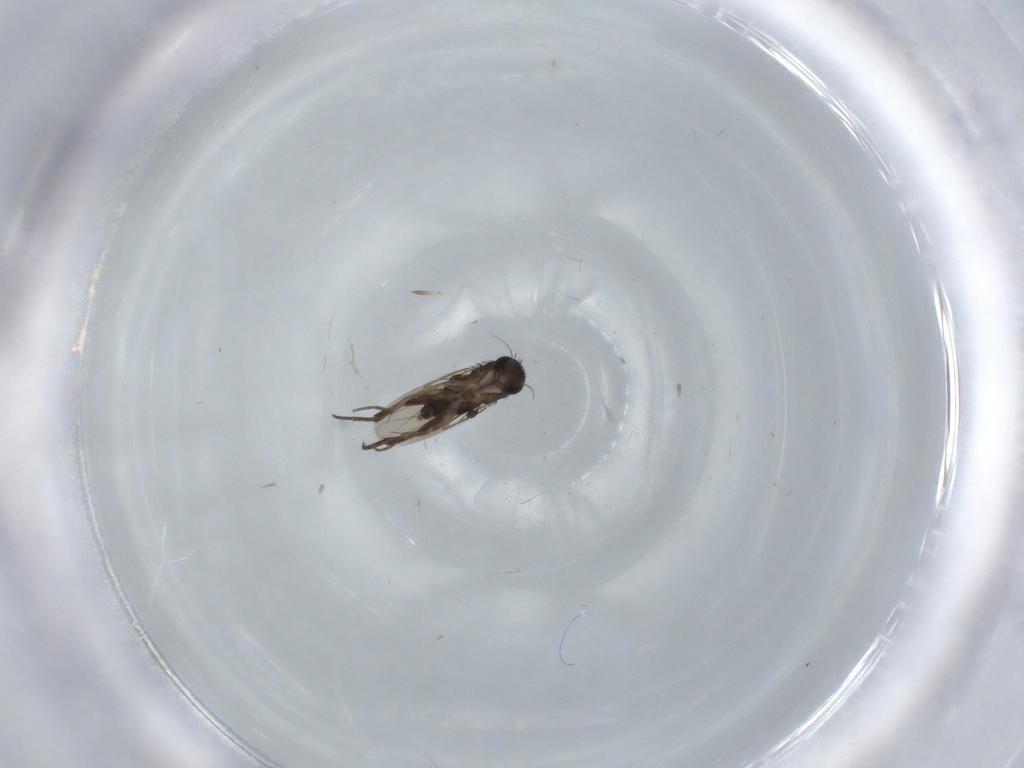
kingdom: Animalia
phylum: Arthropoda
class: Insecta
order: Diptera
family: Phoridae
